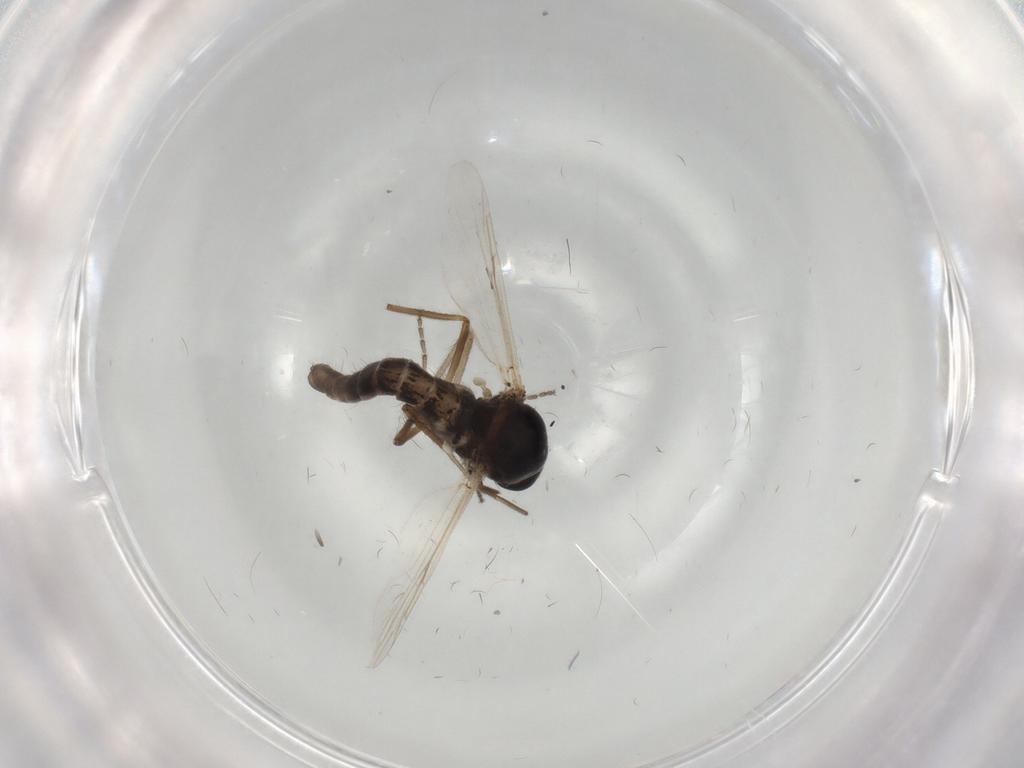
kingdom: Animalia
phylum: Arthropoda
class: Insecta
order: Diptera
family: Ceratopogonidae
